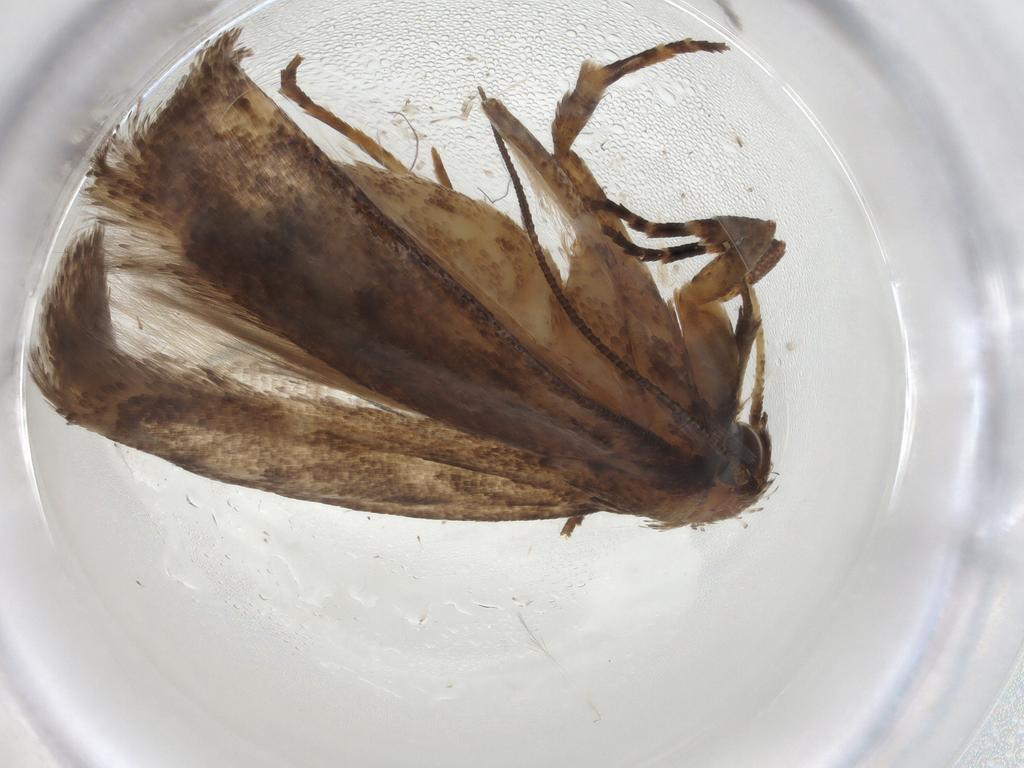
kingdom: Animalia
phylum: Arthropoda
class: Insecta
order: Lepidoptera
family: Gelechiidae
